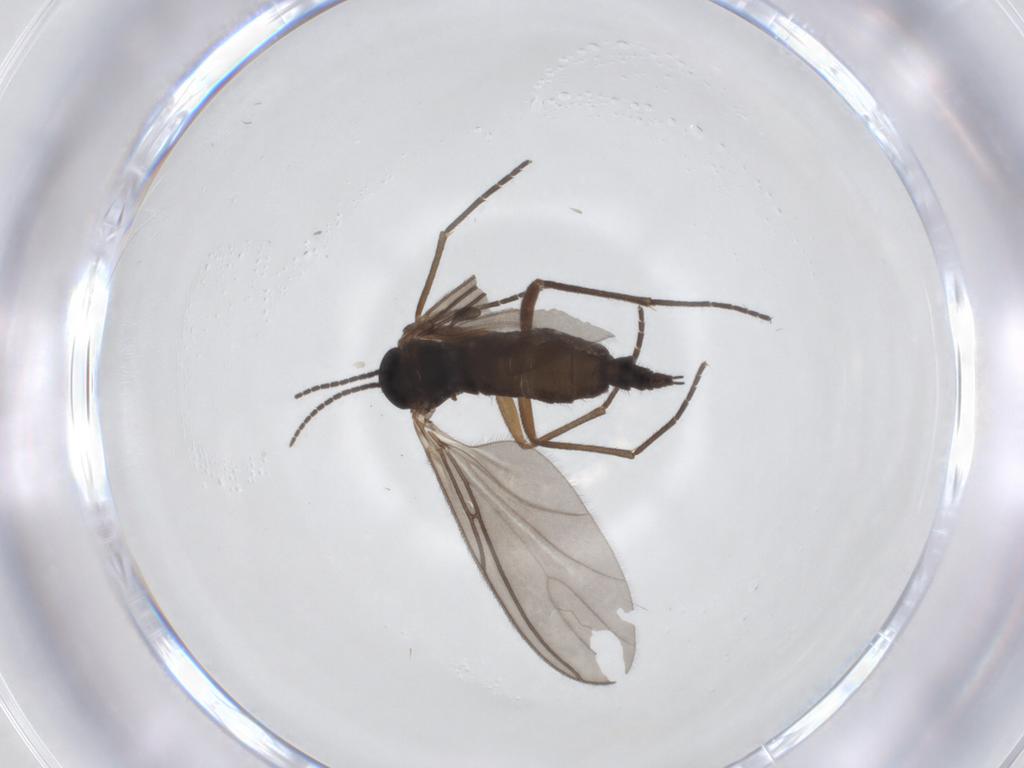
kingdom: Animalia
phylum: Arthropoda
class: Insecta
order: Diptera
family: Sciaridae
